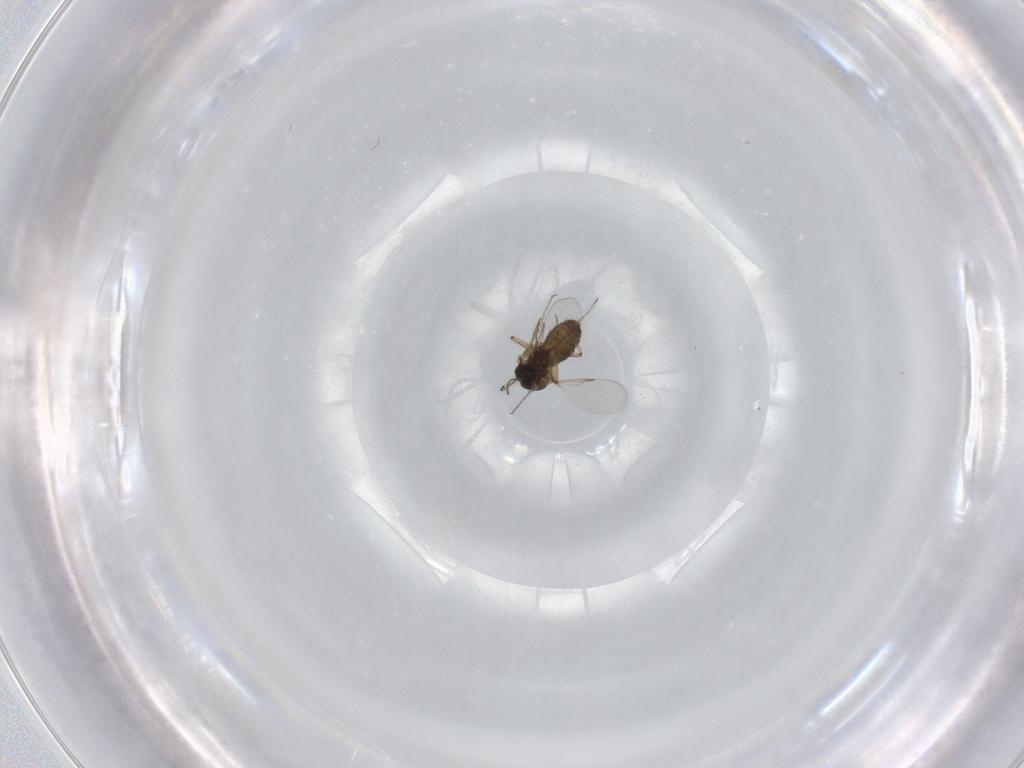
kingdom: Animalia
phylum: Arthropoda
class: Insecta
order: Diptera
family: Ceratopogonidae
